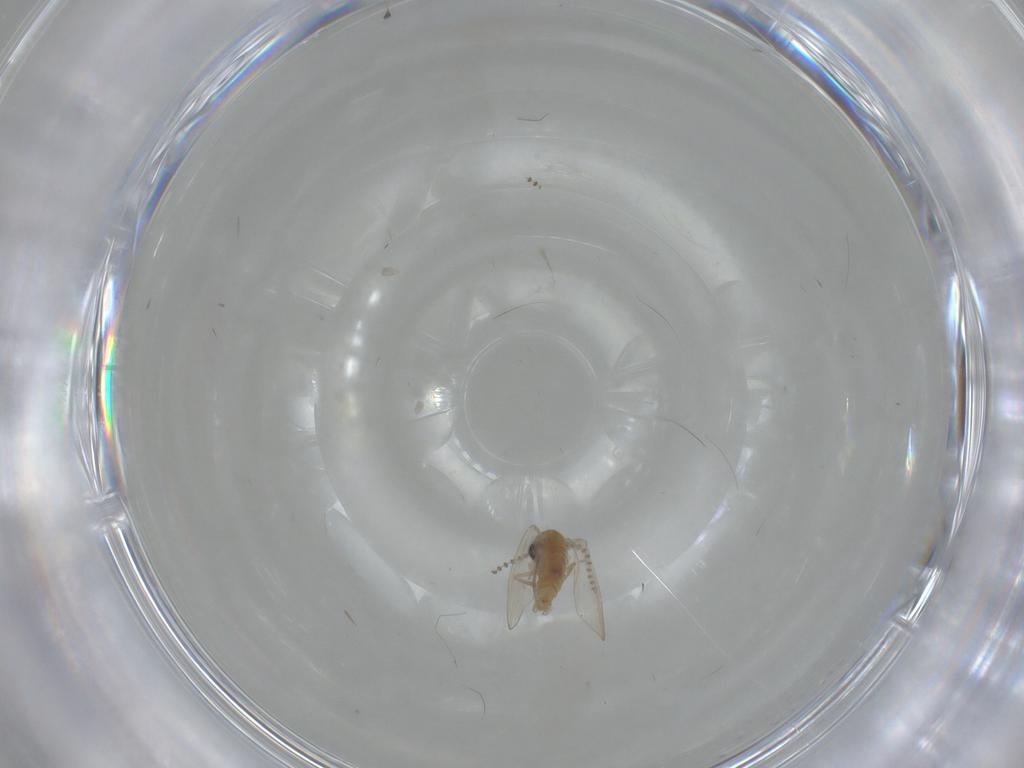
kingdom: Animalia
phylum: Arthropoda
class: Insecta
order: Diptera
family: Psychodidae
